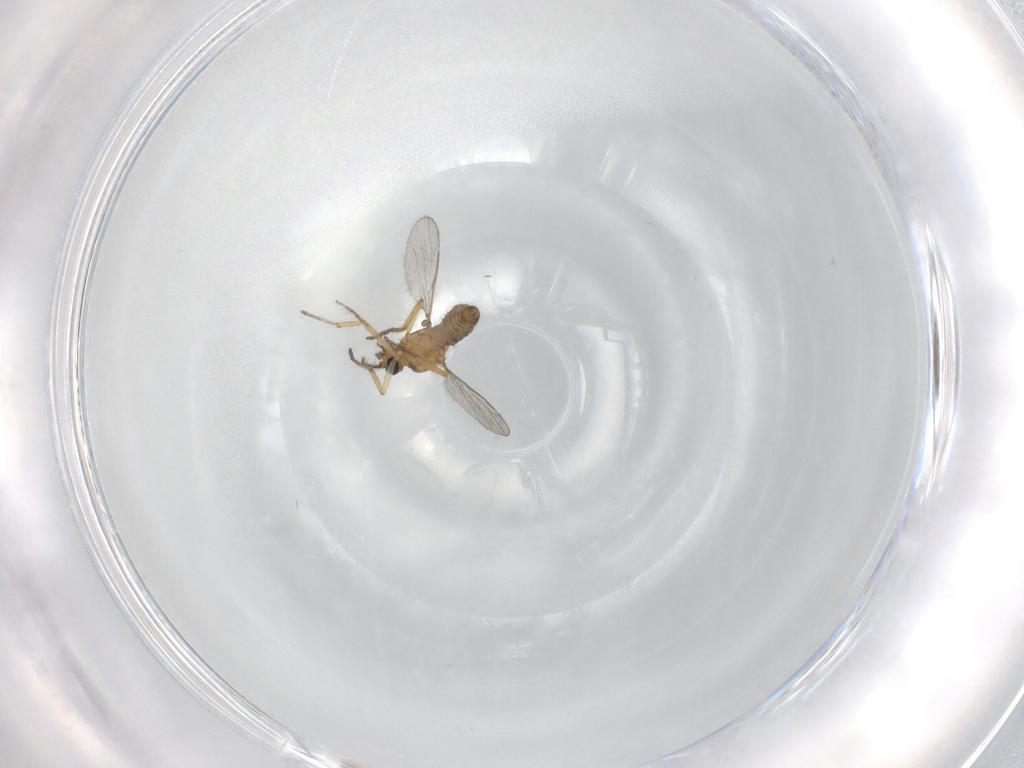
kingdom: Animalia
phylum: Arthropoda
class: Insecta
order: Diptera
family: Ceratopogonidae
